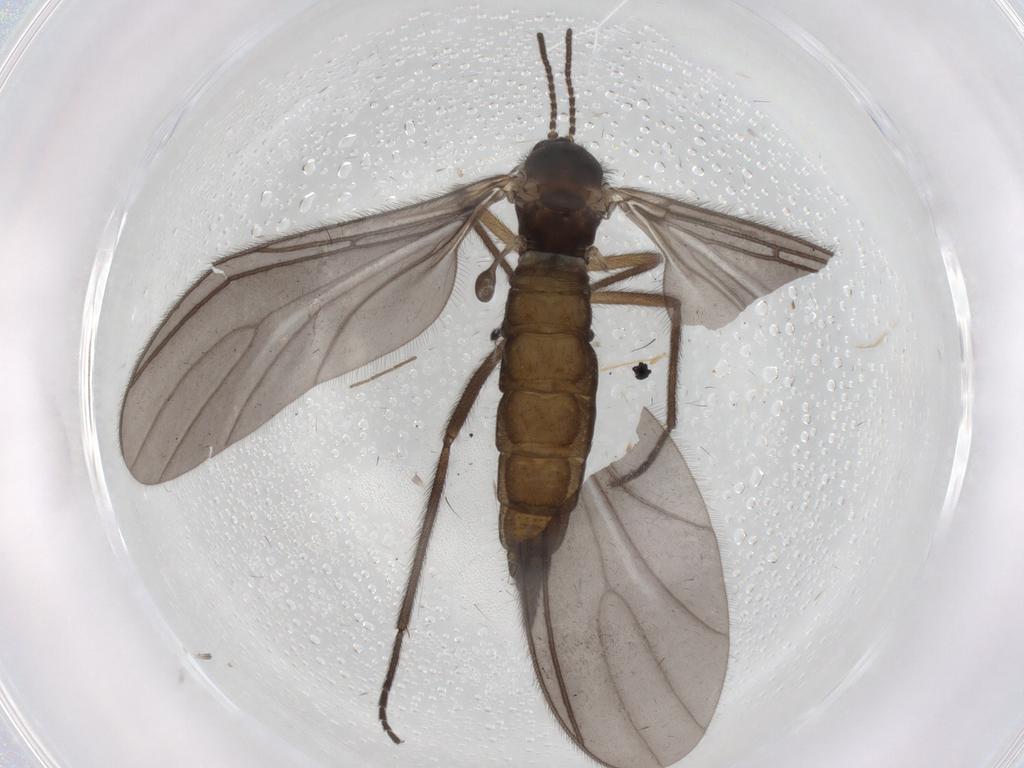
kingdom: Animalia
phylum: Arthropoda
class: Insecta
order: Diptera
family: Sciaridae
